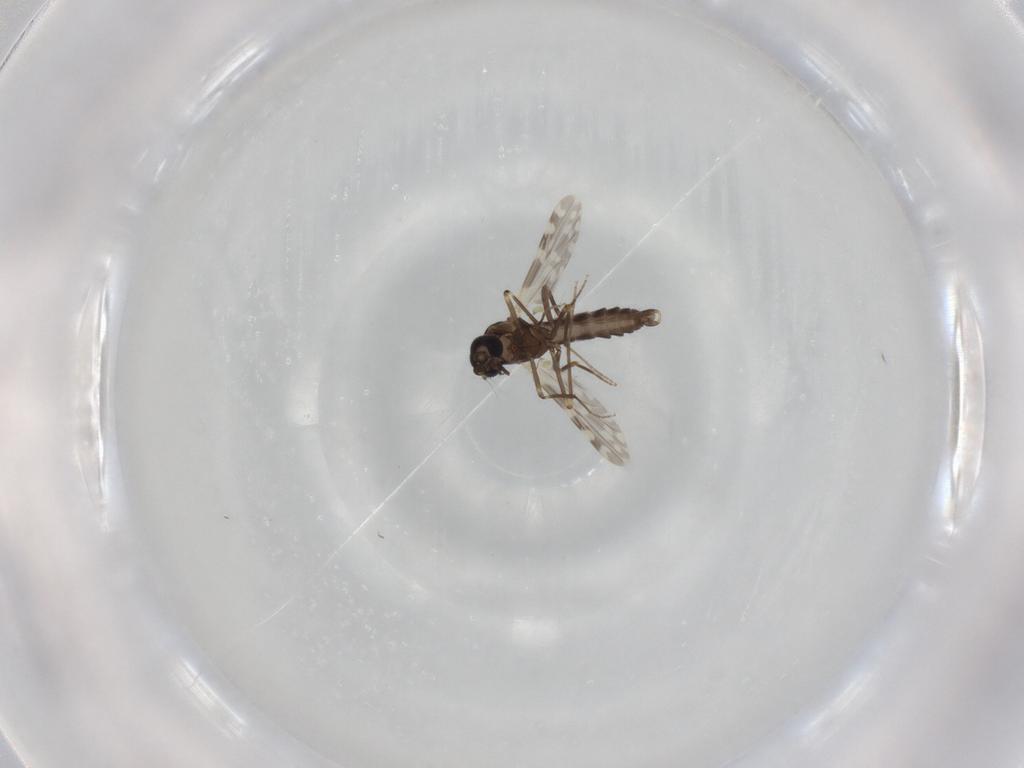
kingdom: Animalia
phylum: Arthropoda
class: Insecta
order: Diptera
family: Ceratopogonidae
